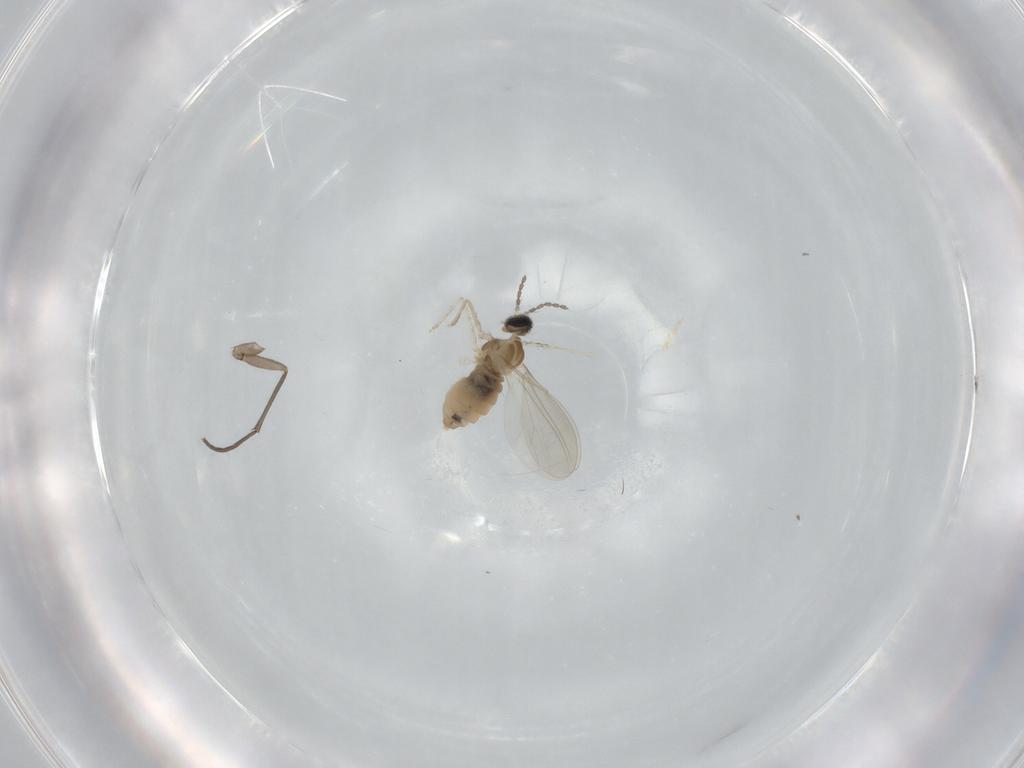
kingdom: Animalia
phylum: Arthropoda
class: Insecta
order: Diptera
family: Cecidomyiidae
